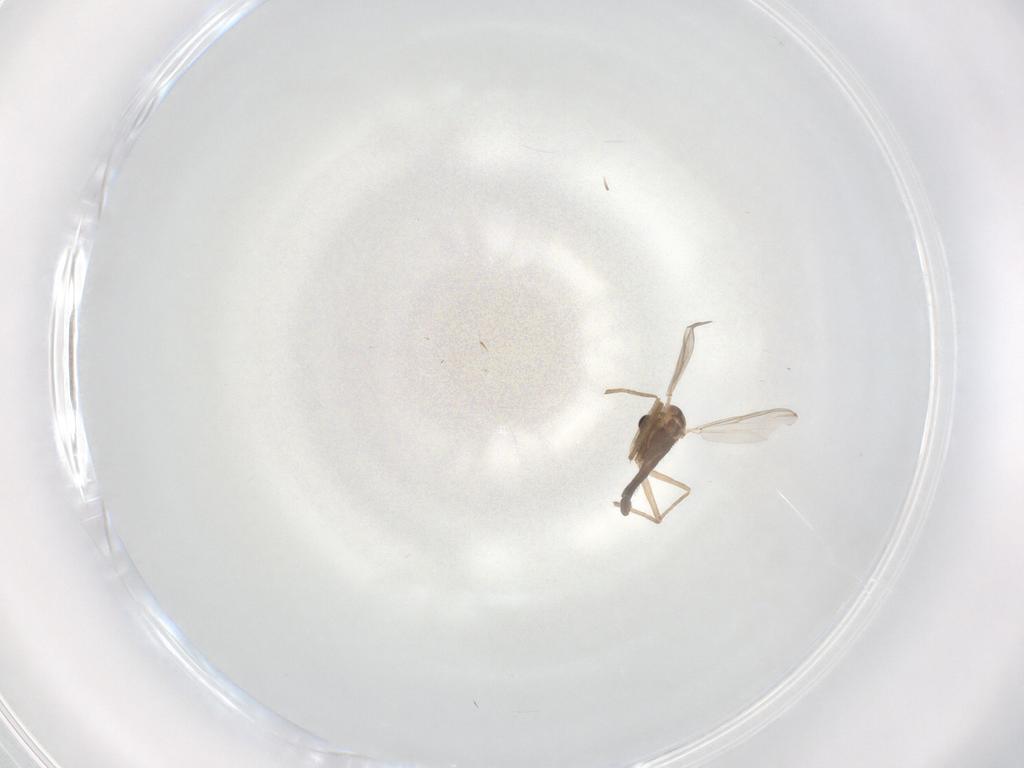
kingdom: Animalia
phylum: Arthropoda
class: Insecta
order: Diptera
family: Chironomidae
